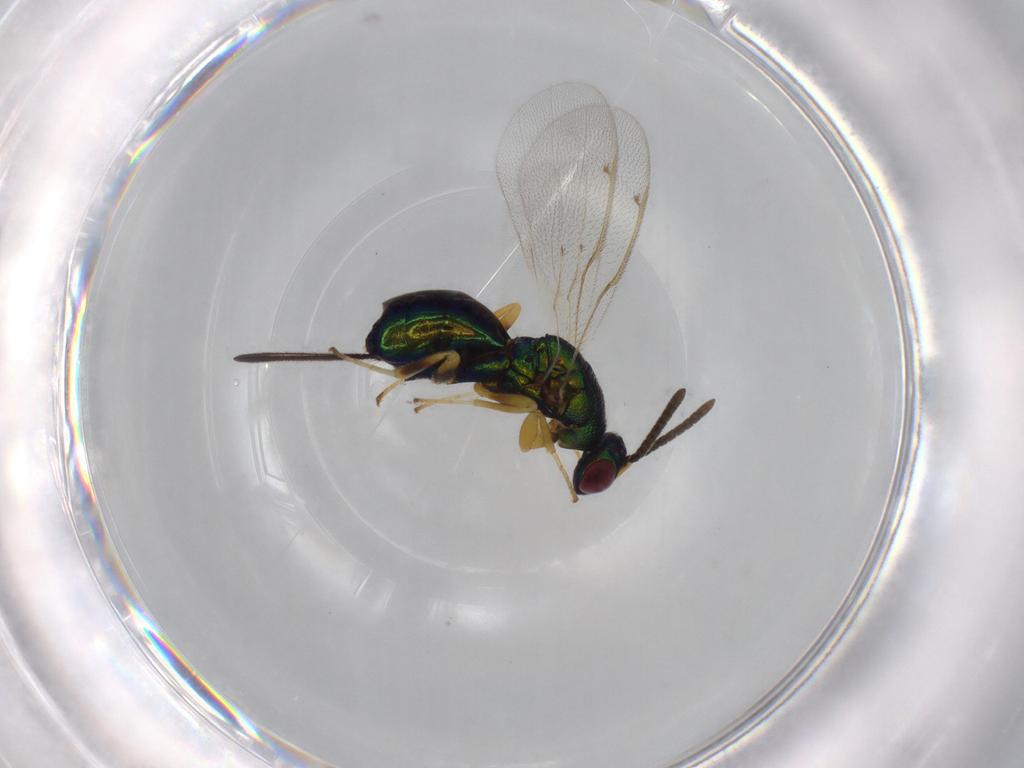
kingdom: Animalia
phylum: Arthropoda
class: Insecta
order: Hymenoptera
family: Torymidae
